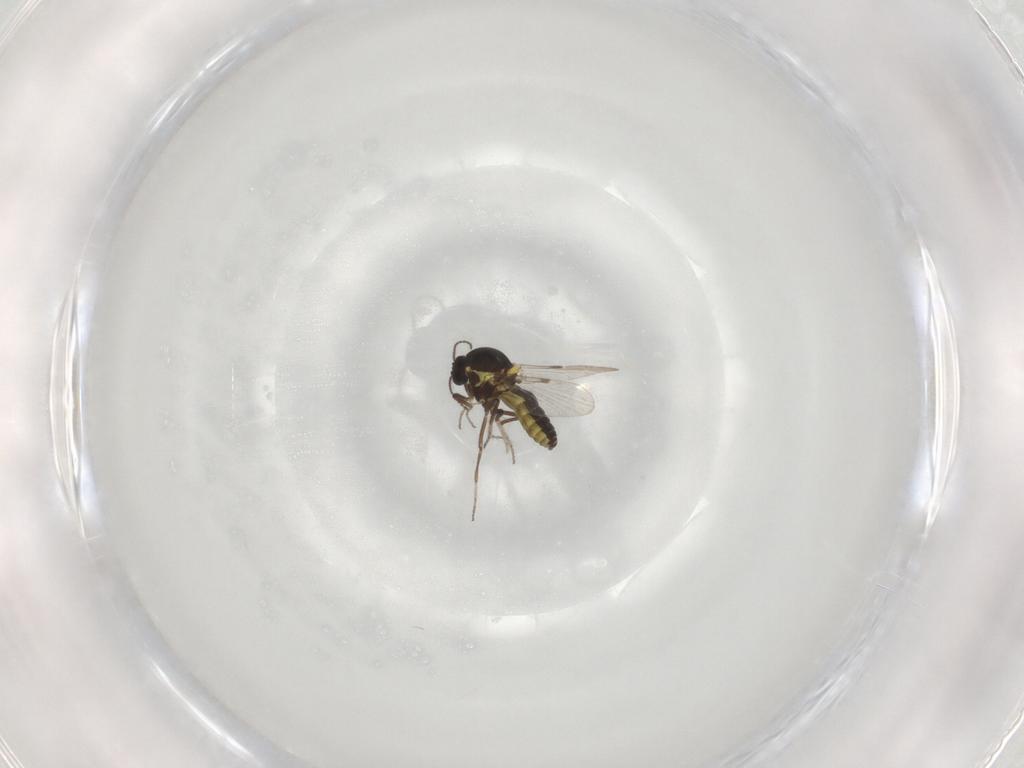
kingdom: Animalia
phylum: Arthropoda
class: Insecta
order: Diptera
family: Ceratopogonidae
